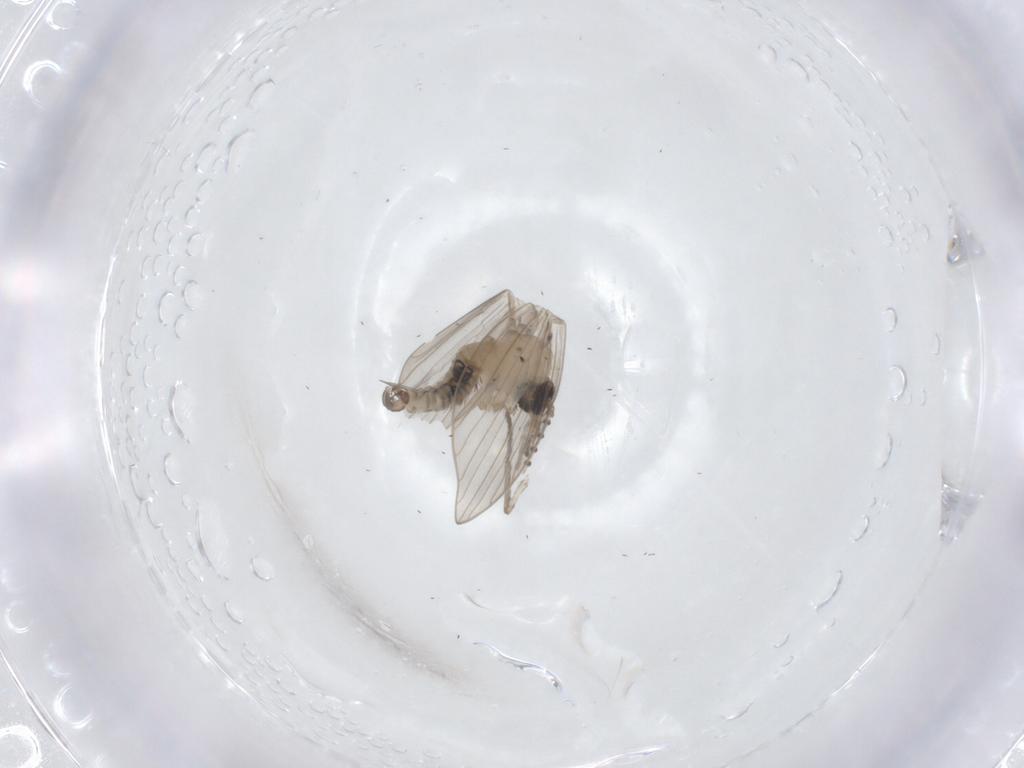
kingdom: Animalia
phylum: Arthropoda
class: Insecta
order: Diptera
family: Psychodidae
